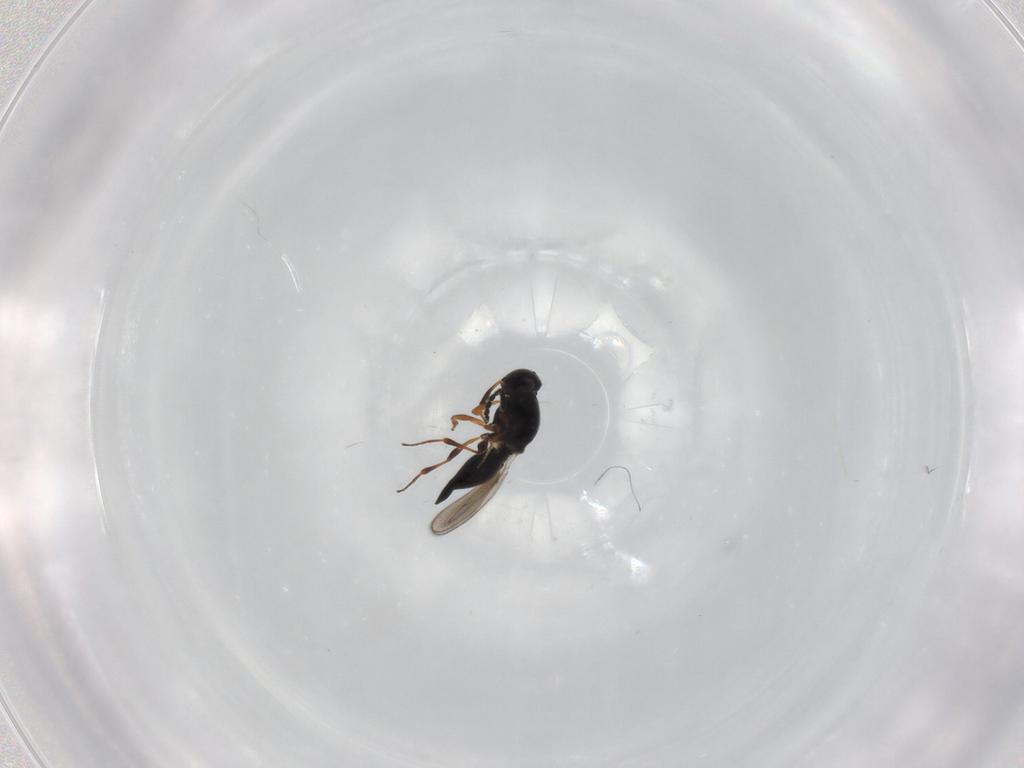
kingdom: Animalia
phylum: Arthropoda
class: Insecta
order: Hymenoptera
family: Platygastridae
